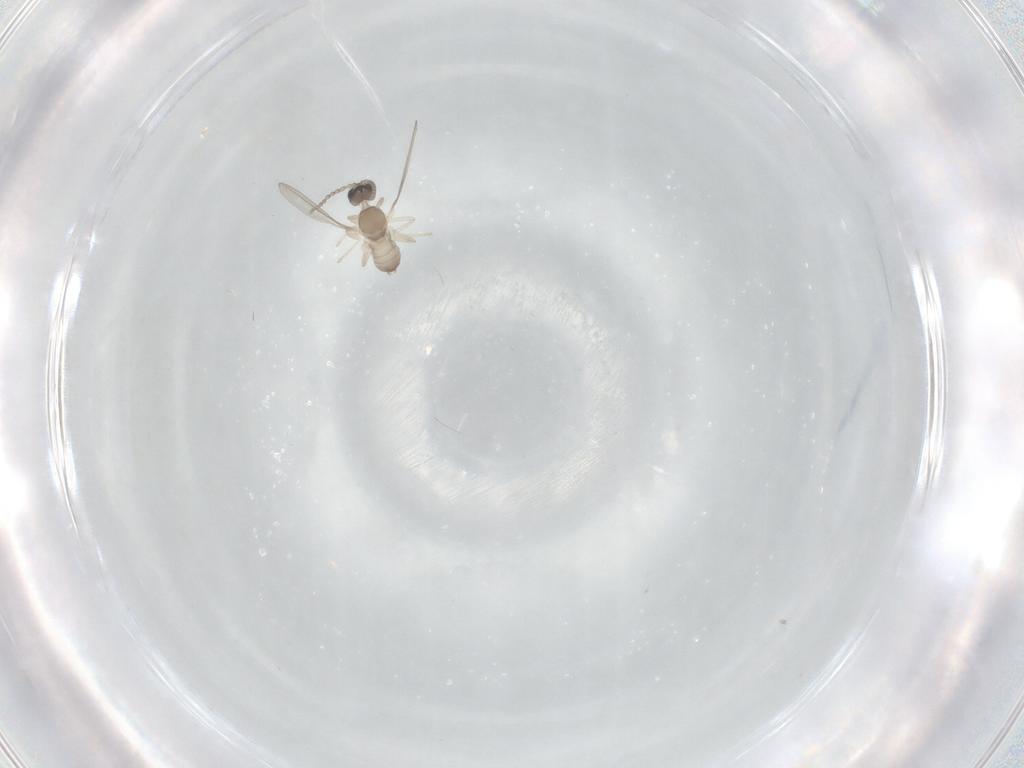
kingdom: Animalia
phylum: Arthropoda
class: Insecta
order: Diptera
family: Cecidomyiidae
